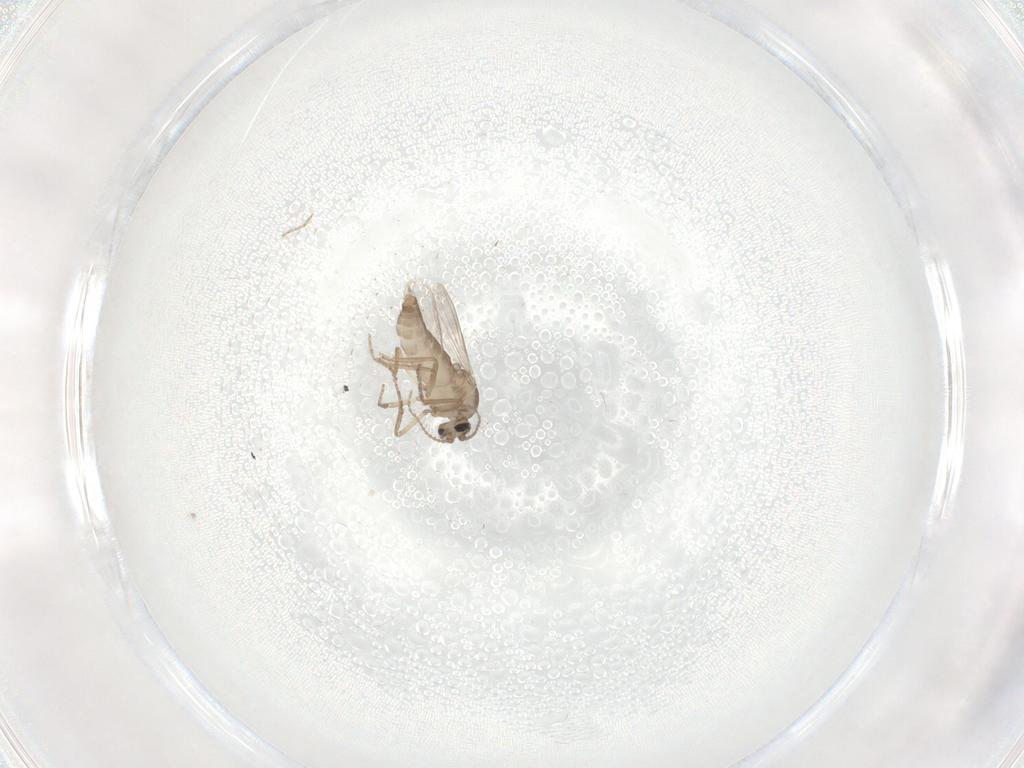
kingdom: Animalia
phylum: Arthropoda
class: Insecta
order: Diptera
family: Ceratopogonidae
